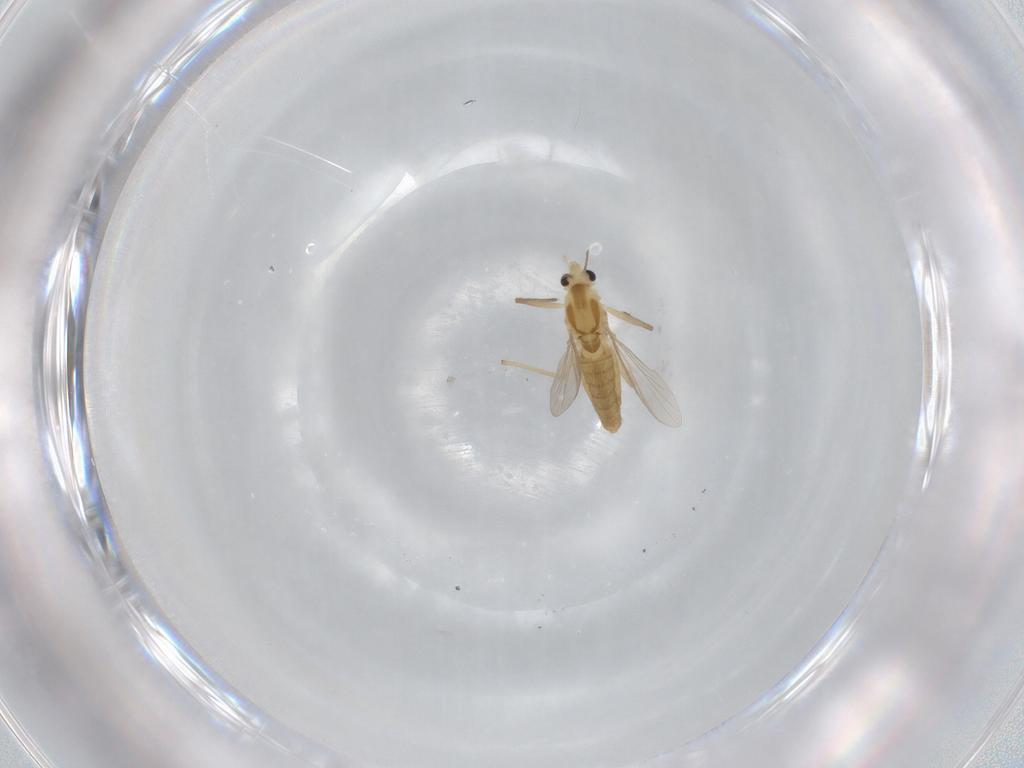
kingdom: Animalia
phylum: Arthropoda
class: Insecta
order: Diptera
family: Chironomidae
